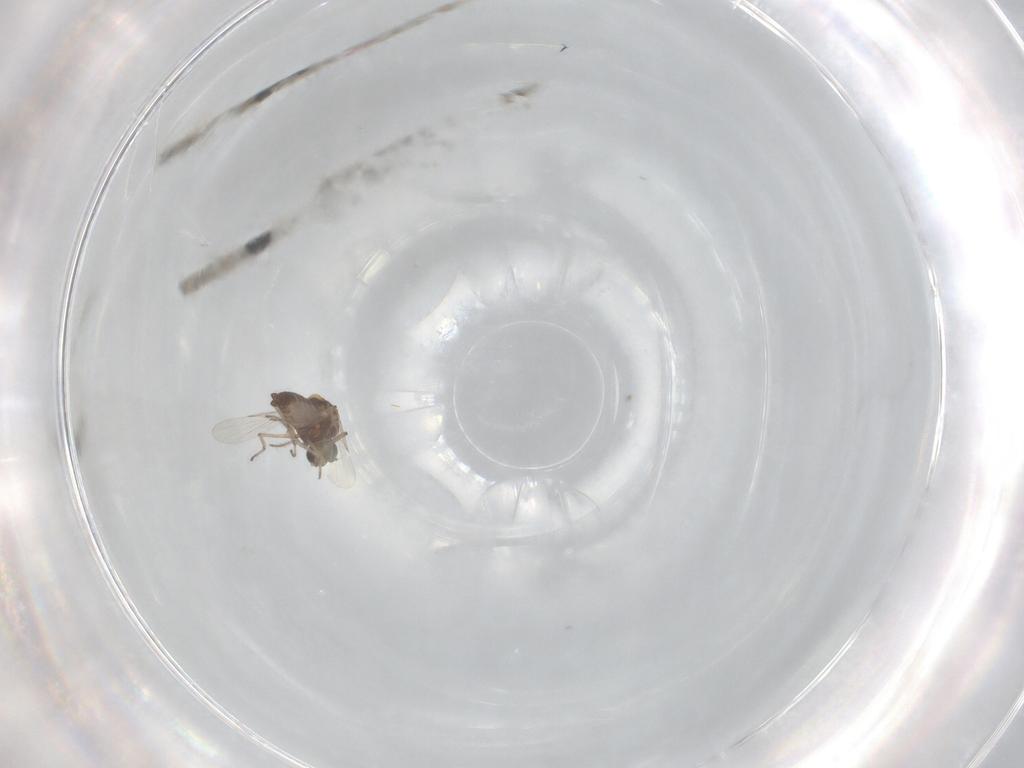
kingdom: Animalia
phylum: Arthropoda
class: Insecta
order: Diptera
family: Ceratopogonidae
